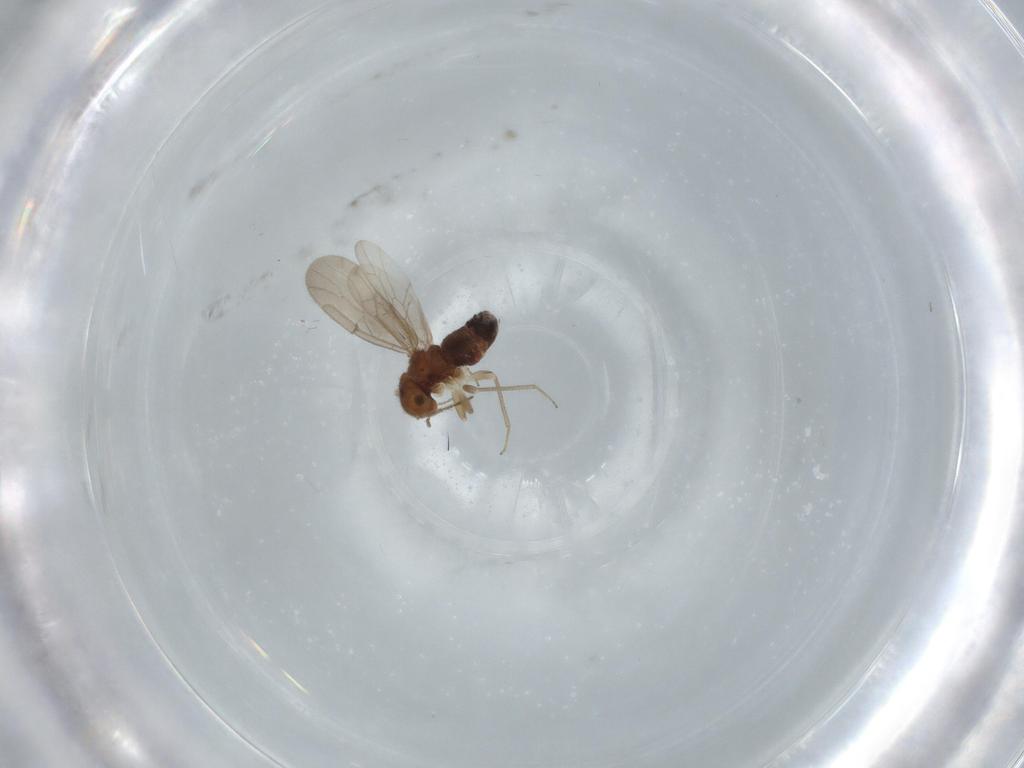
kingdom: Animalia
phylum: Arthropoda
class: Insecta
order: Psocodea
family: Ectopsocidae
